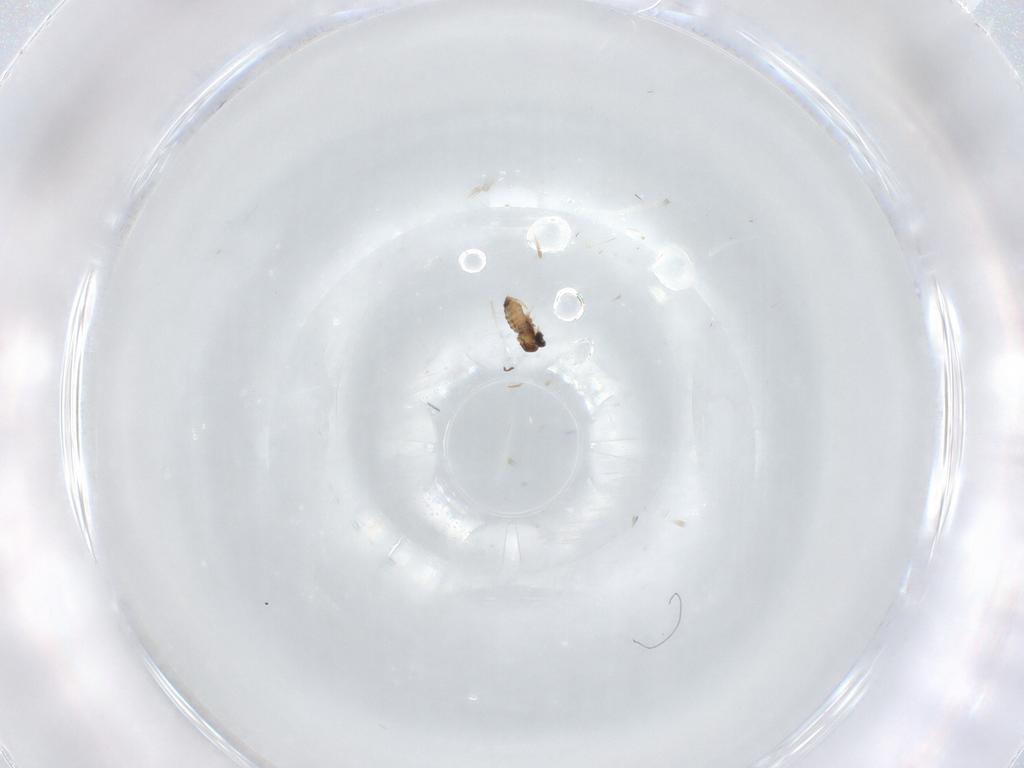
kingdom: Animalia
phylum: Arthropoda
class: Insecta
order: Diptera
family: Cecidomyiidae
